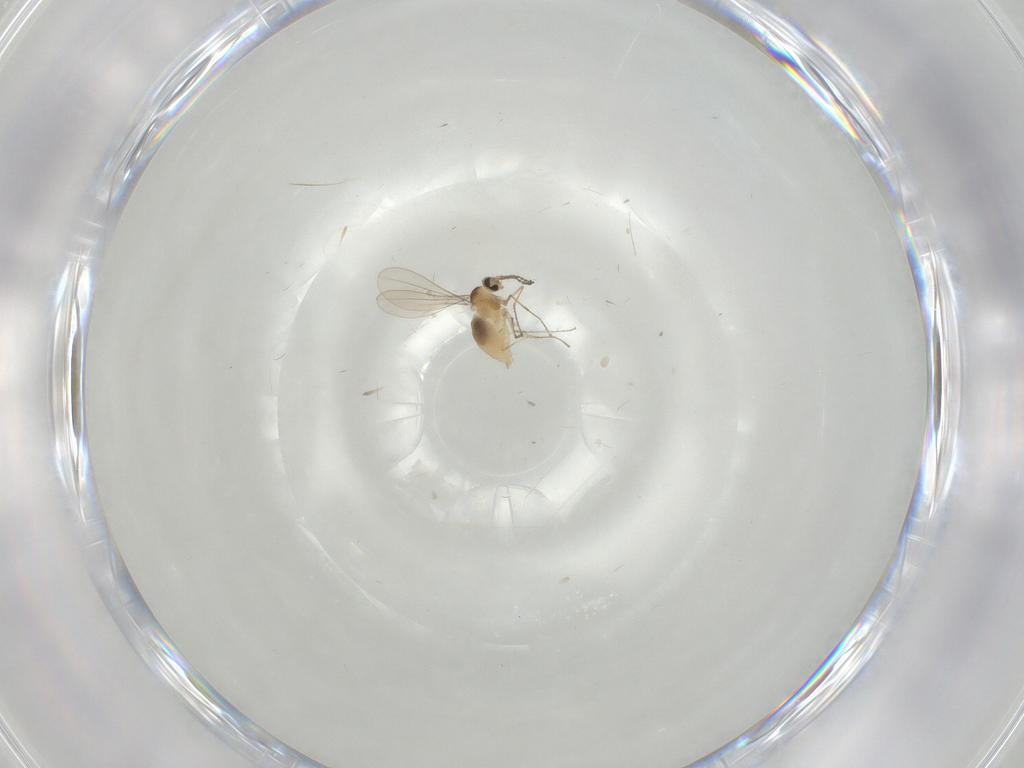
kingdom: Animalia
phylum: Arthropoda
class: Insecta
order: Diptera
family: Cecidomyiidae
